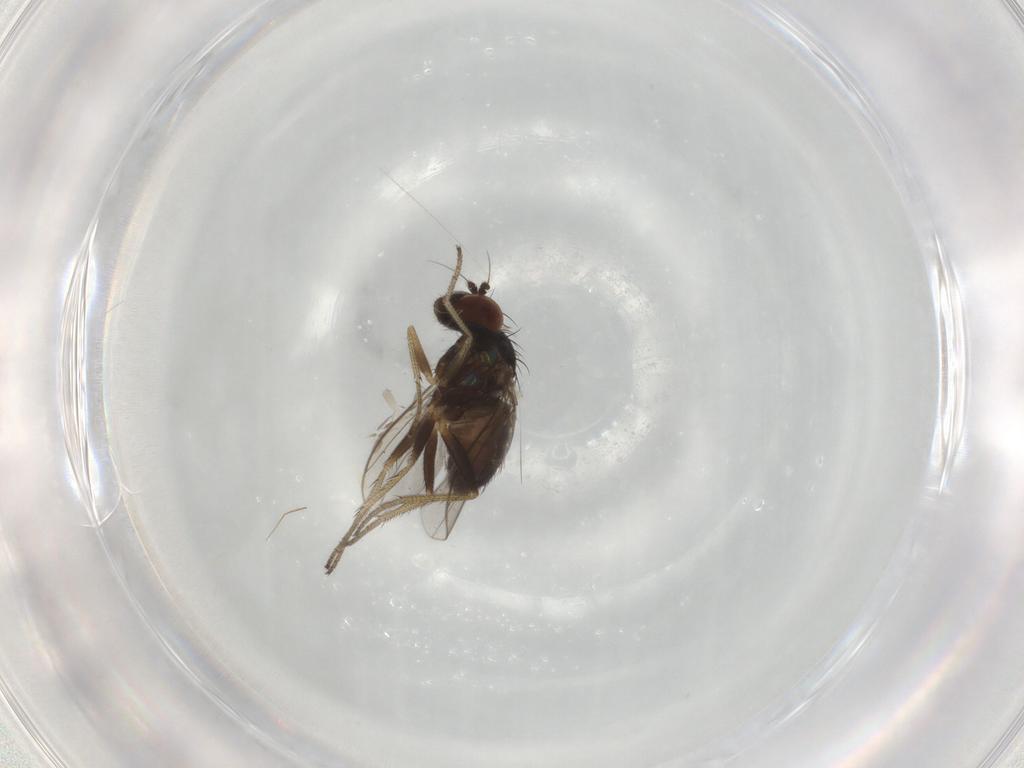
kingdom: Animalia
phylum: Arthropoda
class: Insecta
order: Diptera
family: Dolichopodidae
